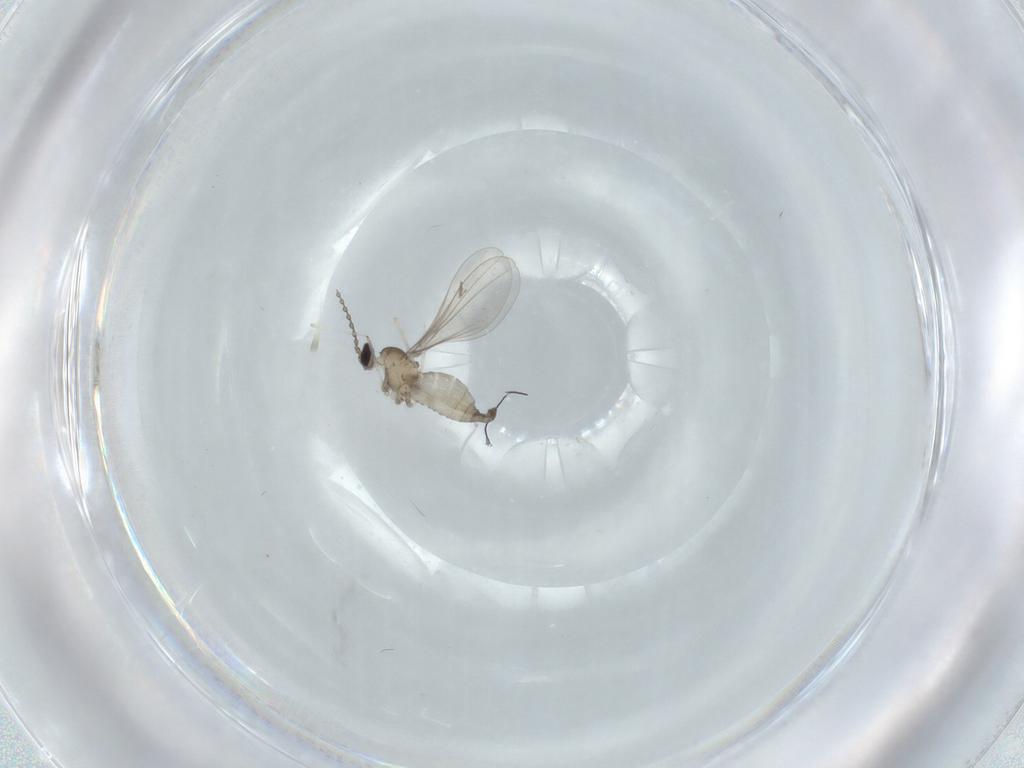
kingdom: Animalia
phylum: Arthropoda
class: Insecta
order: Diptera
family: Cecidomyiidae
